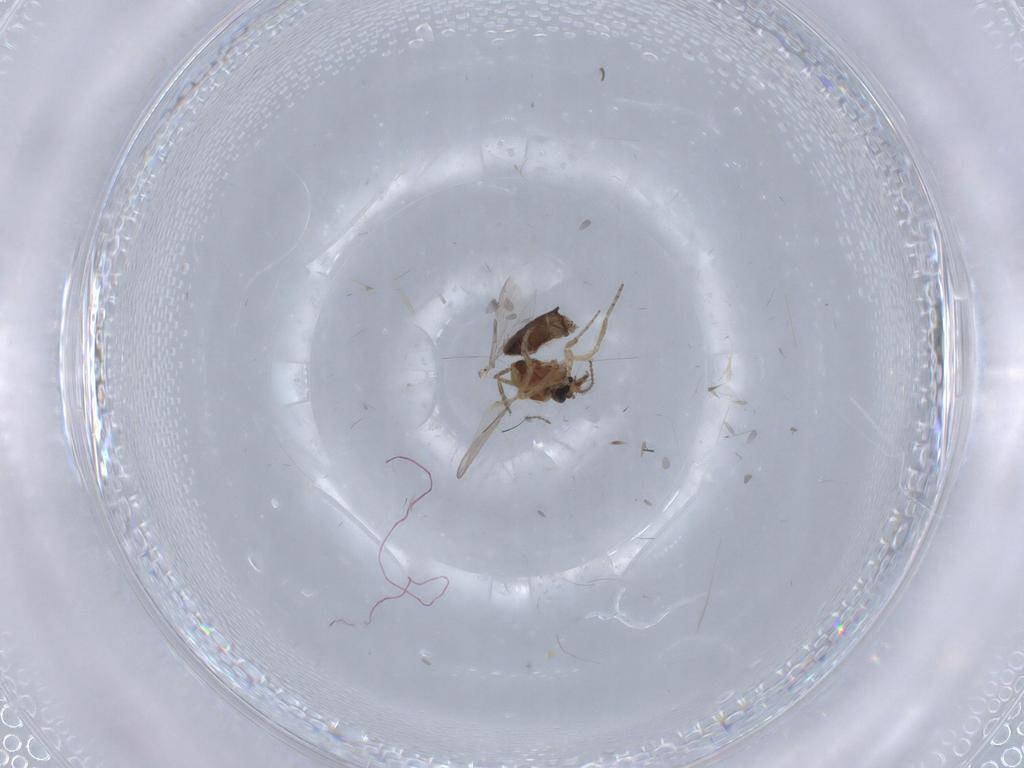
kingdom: Animalia
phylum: Arthropoda
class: Insecta
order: Diptera
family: Ceratopogonidae
